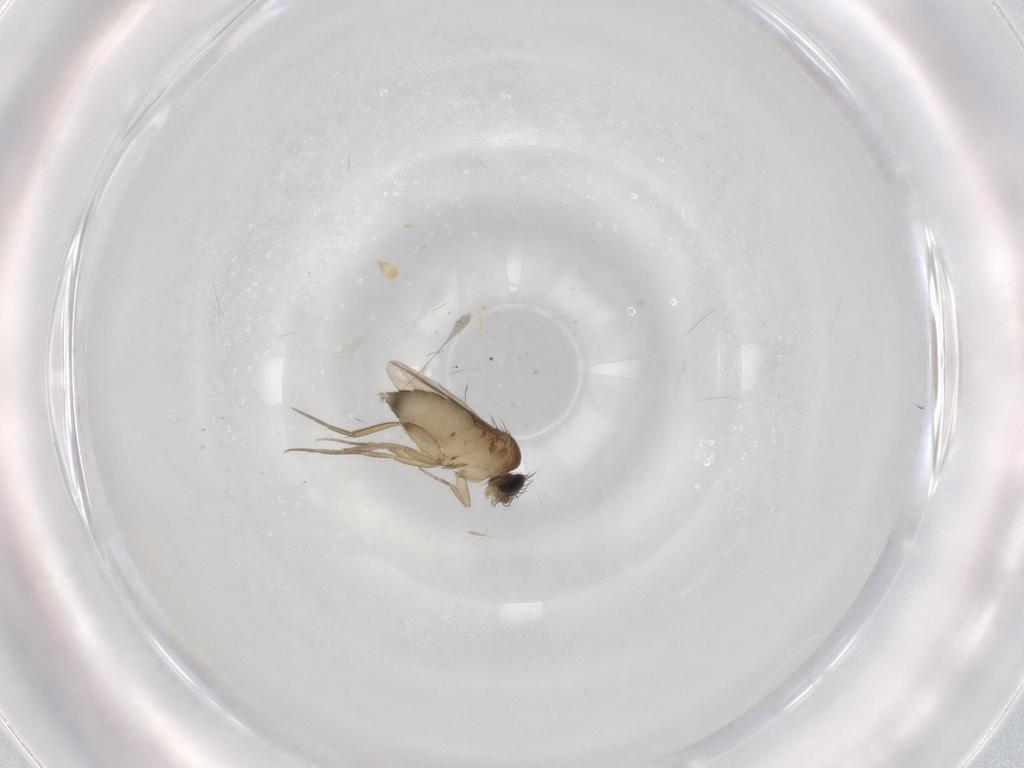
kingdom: Animalia
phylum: Arthropoda
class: Insecta
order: Diptera
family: Phoridae
